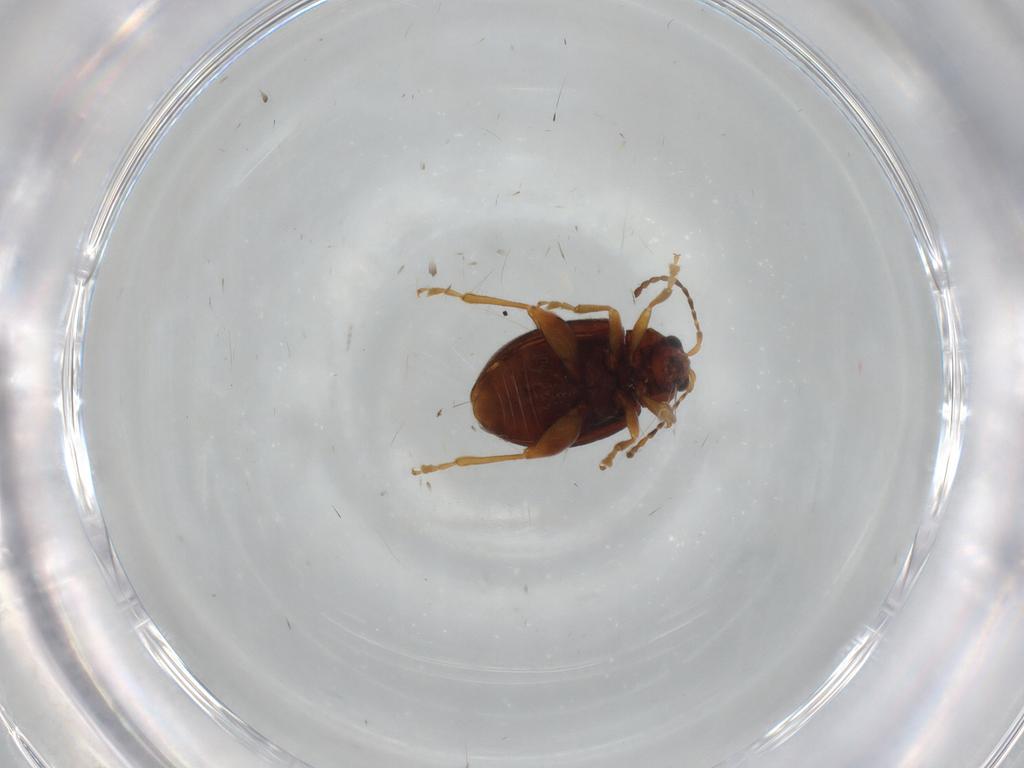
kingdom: Animalia
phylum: Arthropoda
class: Insecta
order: Coleoptera
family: Chrysomelidae
